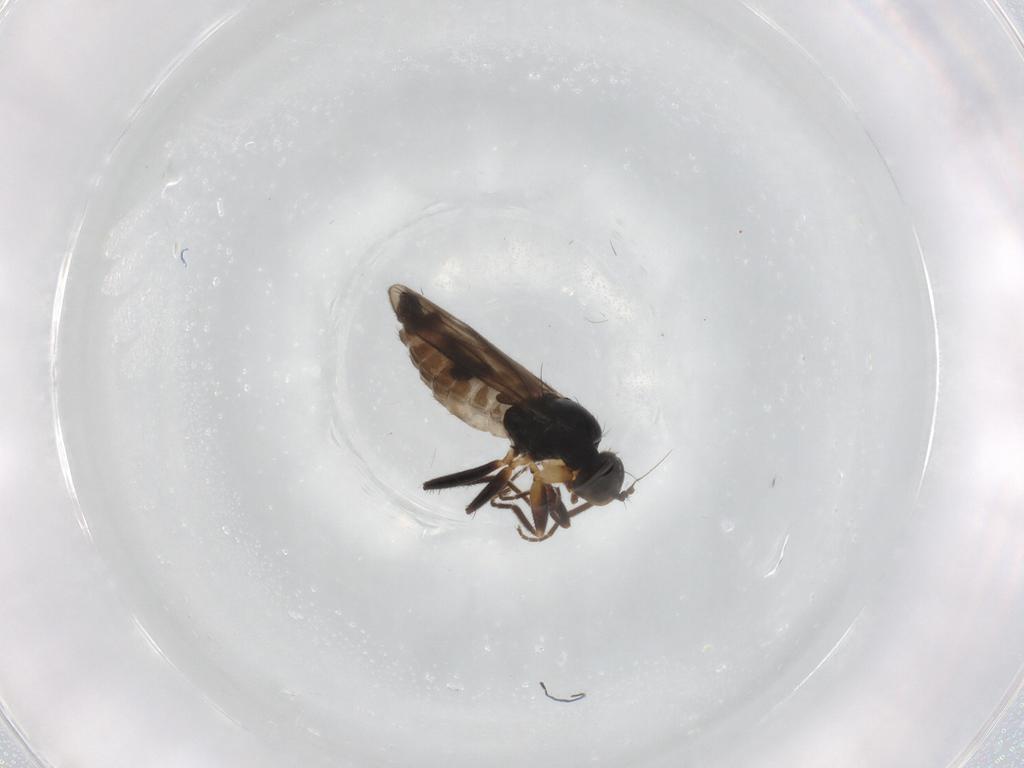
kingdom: Animalia
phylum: Arthropoda
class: Insecta
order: Diptera
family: Hybotidae
